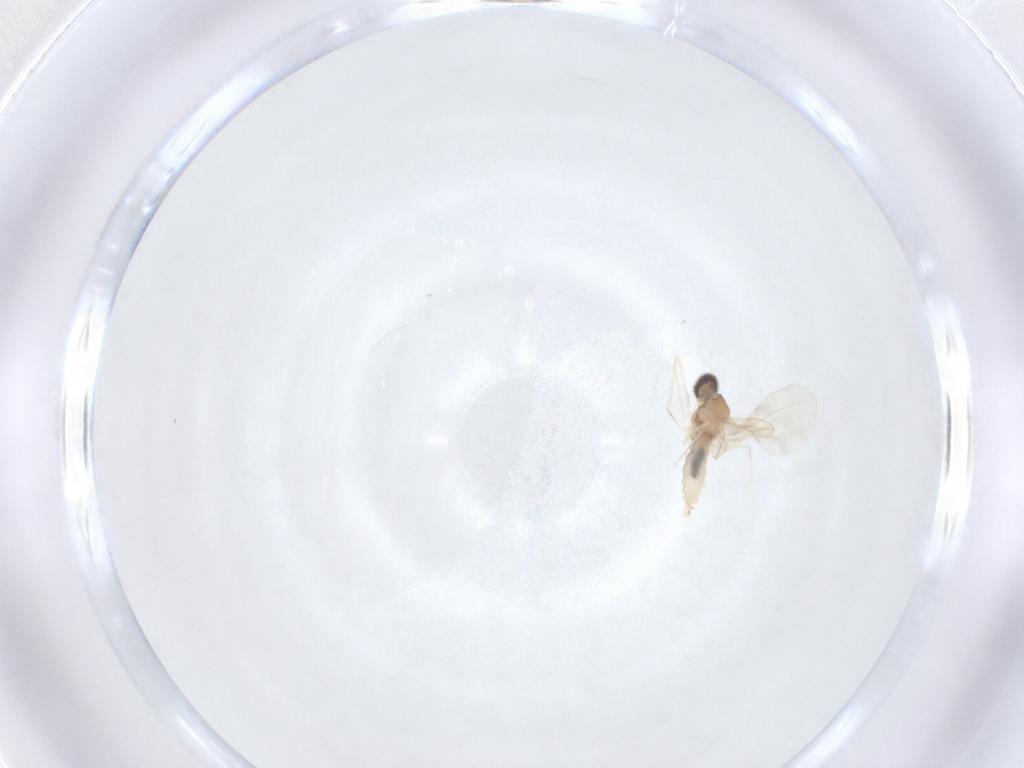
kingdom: Animalia
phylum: Arthropoda
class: Insecta
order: Diptera
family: Cecidomyiidae
